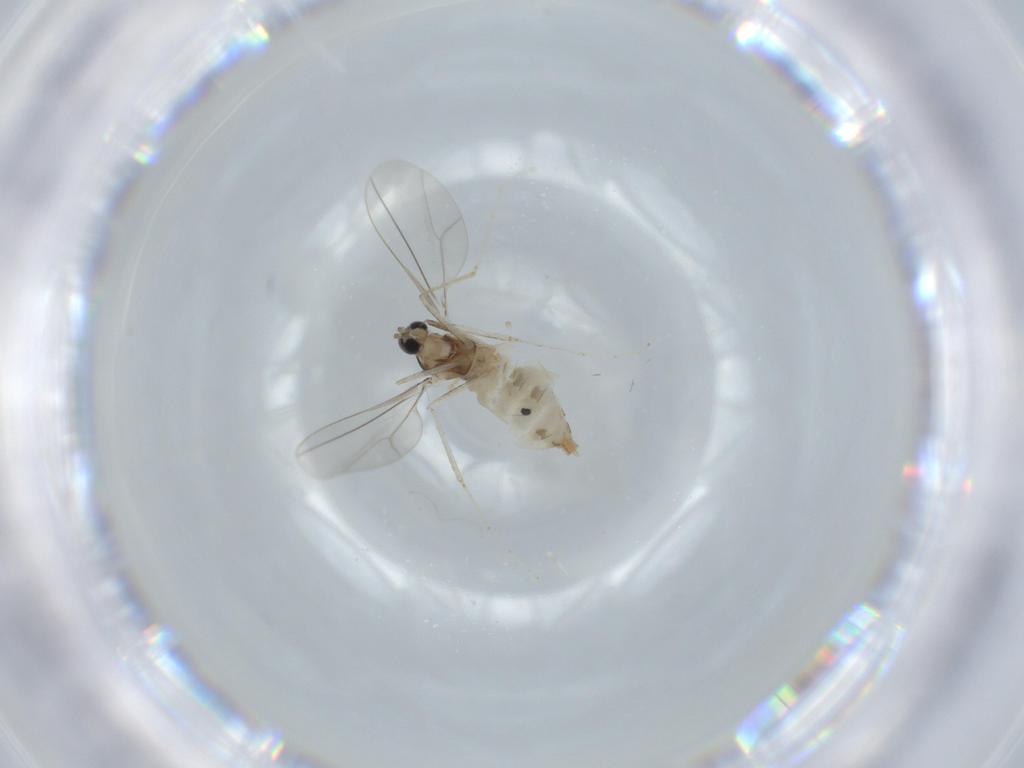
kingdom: Animalia
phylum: Arthropoda
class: Insecta
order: Diptera
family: Cecidomyiidae
